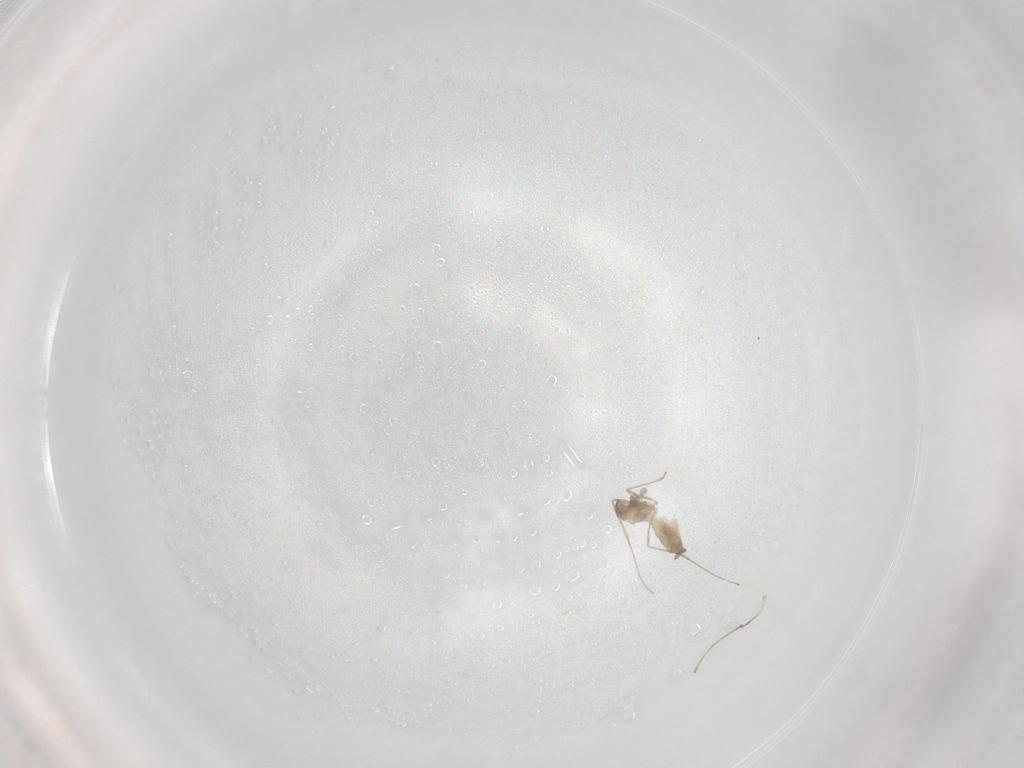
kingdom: Animalia
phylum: Arthropoda
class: Insecta
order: Diptera
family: Cecidomyiidae
